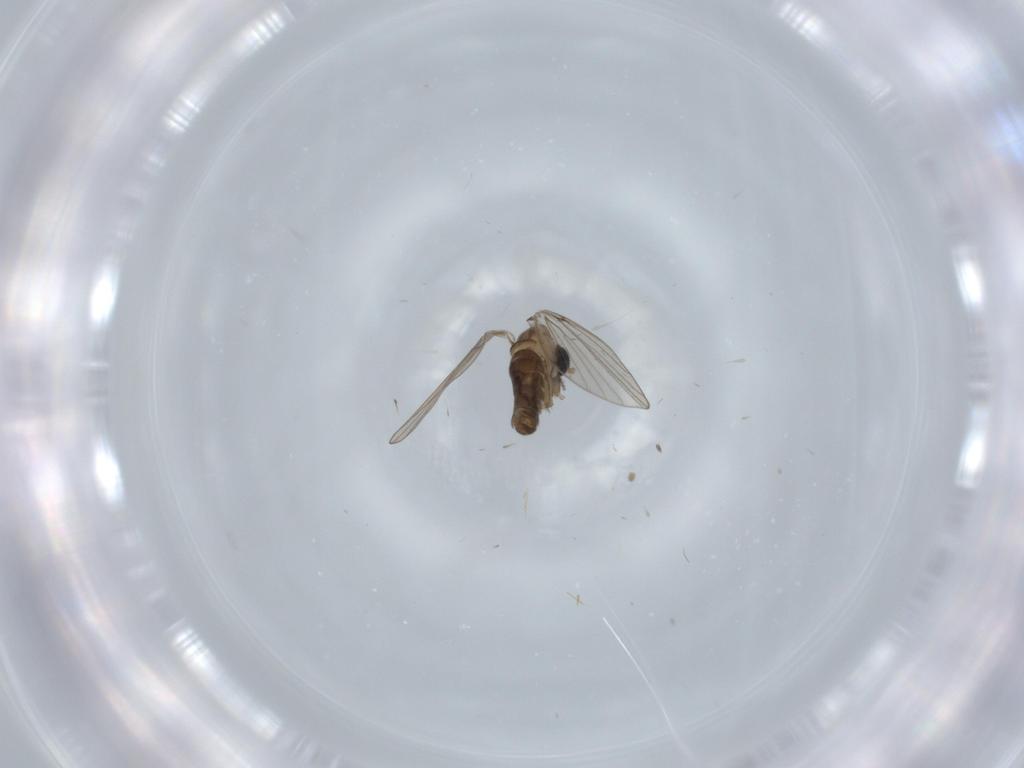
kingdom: Animalia
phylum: Arthropoda
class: Insecta
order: Diptera
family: Psychodidae
